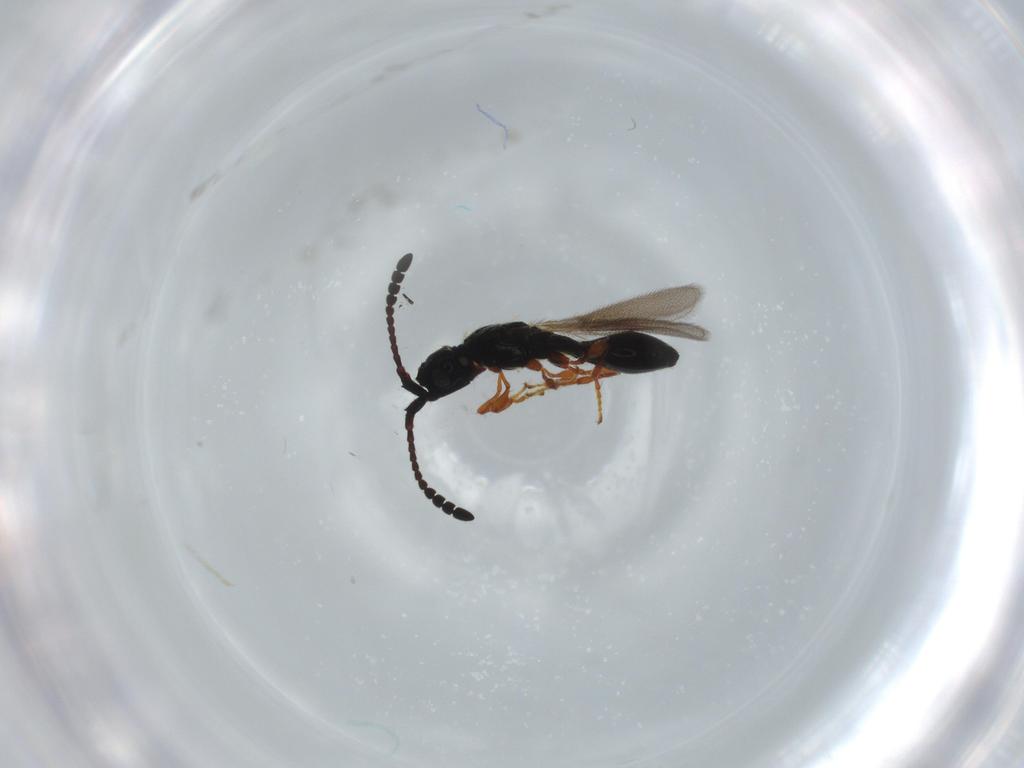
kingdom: Animalia
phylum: Arthropoda
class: Insecta
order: Hymenoptera
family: Diapriidae
